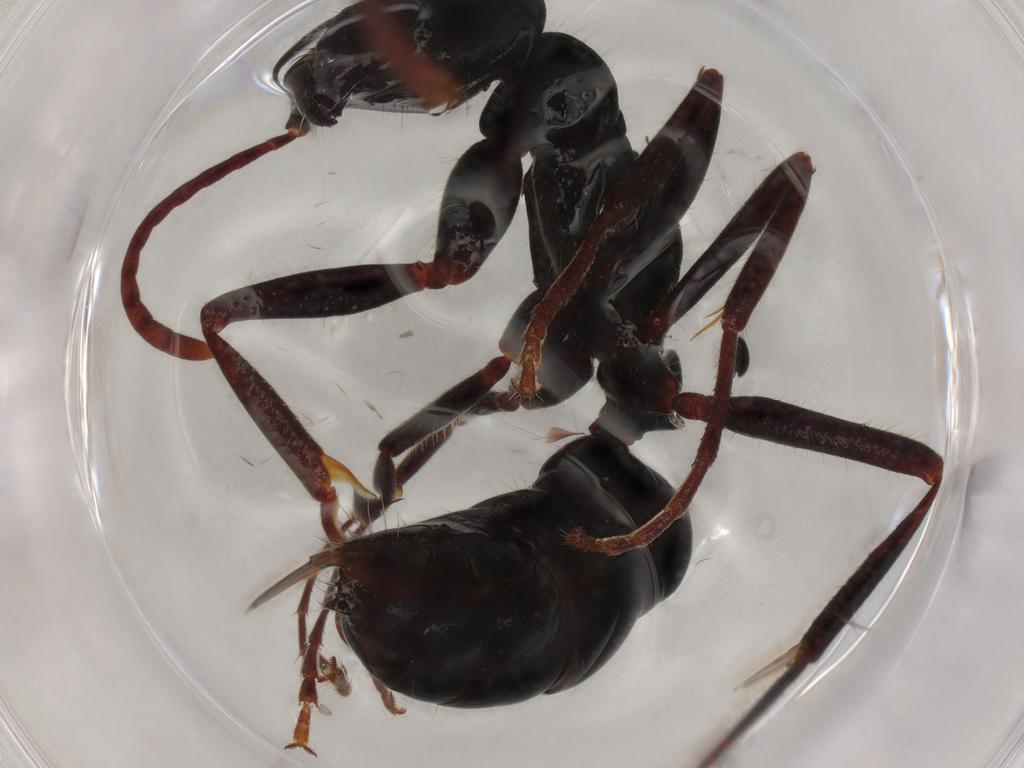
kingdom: Animalia
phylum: Arthropoda
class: Insecta
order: Hymenoptera
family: Formicidae
